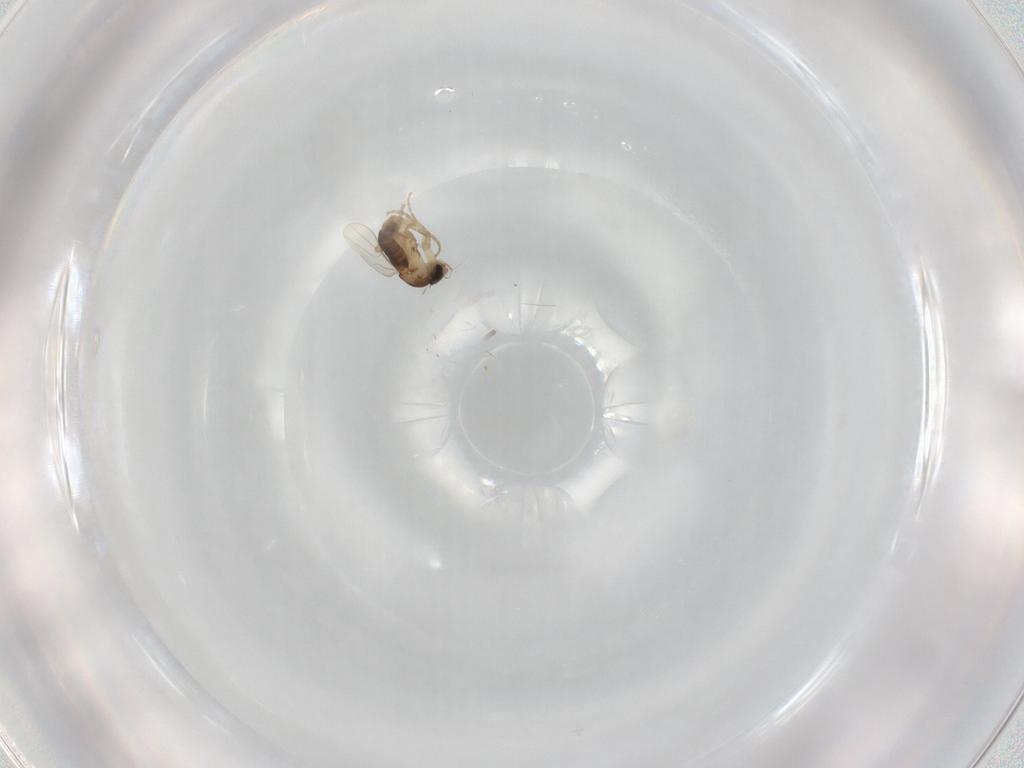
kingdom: Animalia
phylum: Arthropoda
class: Insecta
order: Diptera
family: Phoridae
